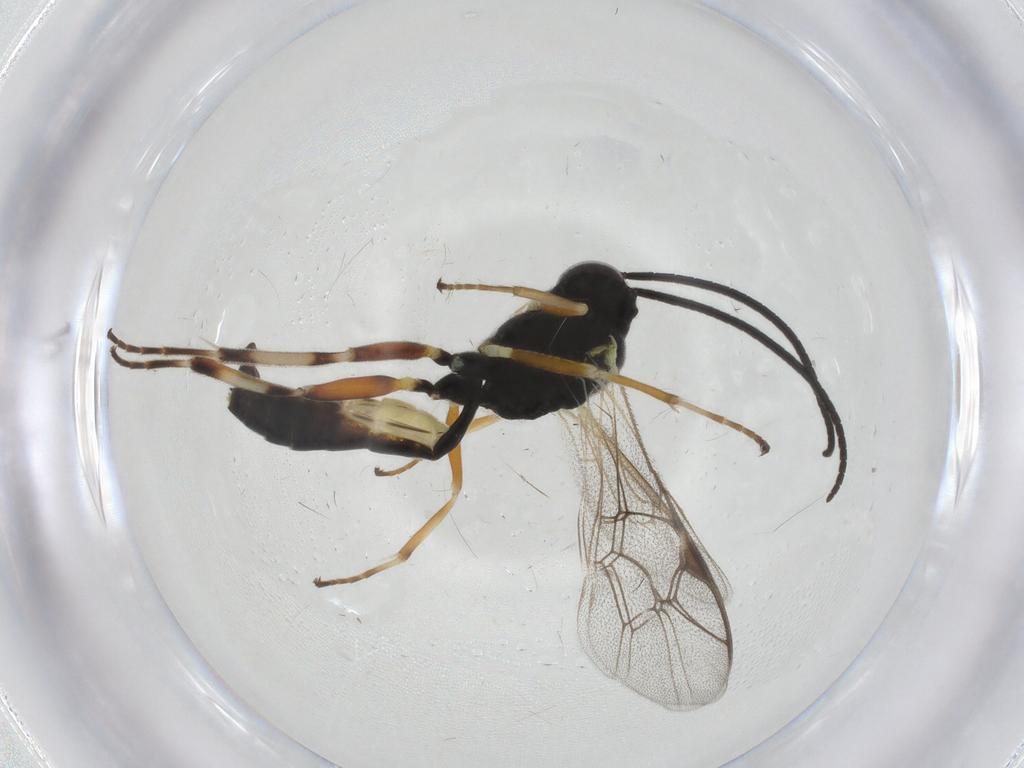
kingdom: Animalia
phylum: Arthropoda
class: Insecta
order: Hymenoptera
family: Ichneumonidae
